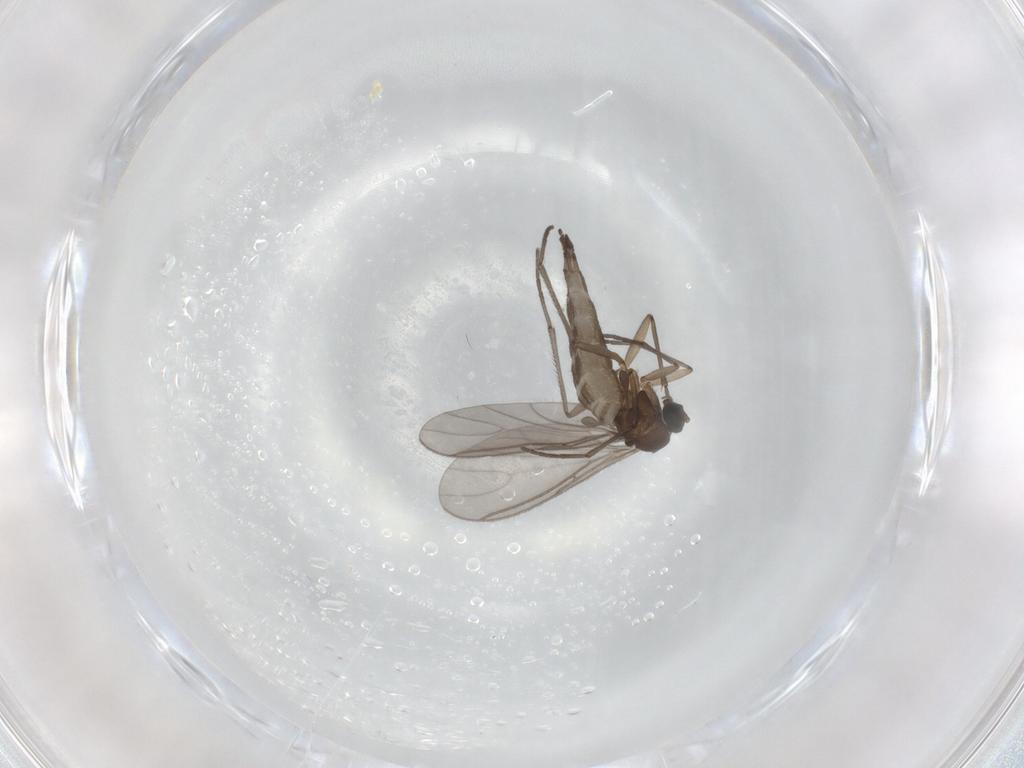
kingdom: Animalia
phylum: Arthropoda
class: Insecta
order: Diptera
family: Sciaridae
